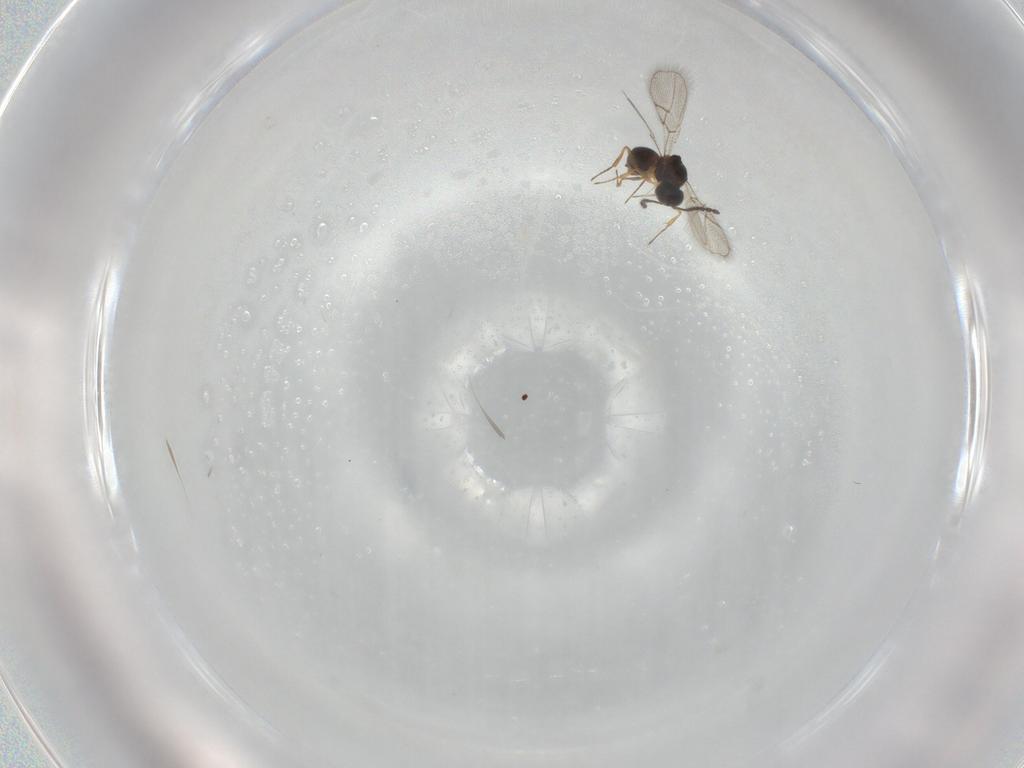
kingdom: Animalia
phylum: Arthropoda
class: Insecta
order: Hymenoptera
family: Figitidae
